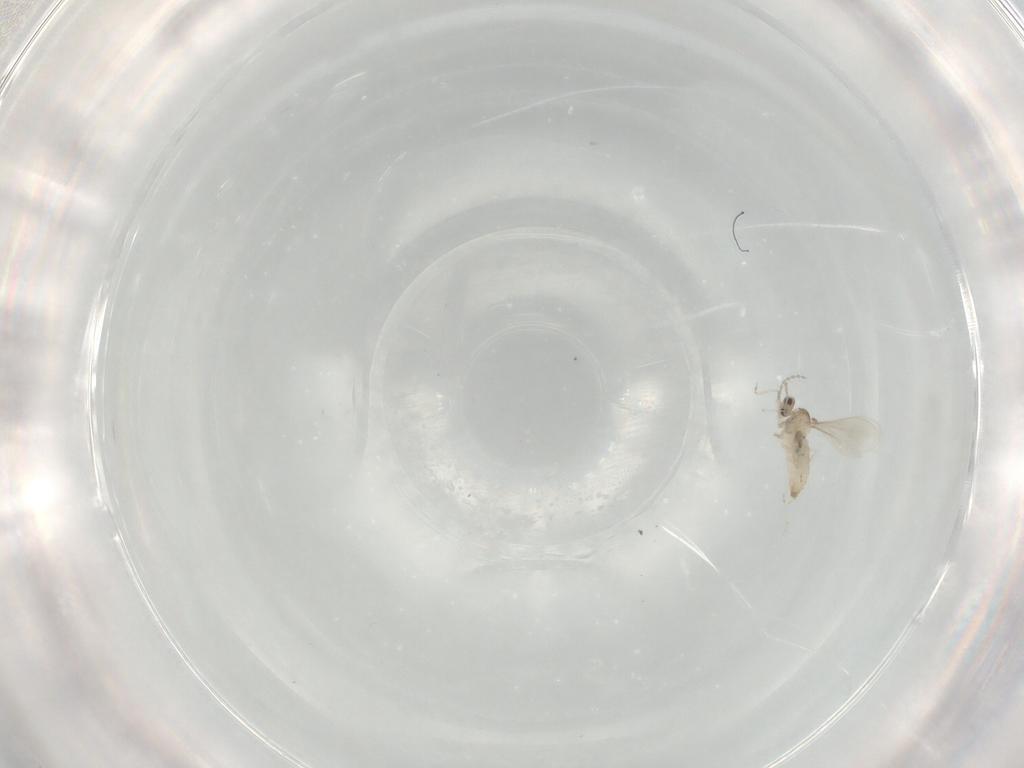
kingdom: Animalia
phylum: Arthropoda
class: Insecta
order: Diptera
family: Cecidomyiidae
